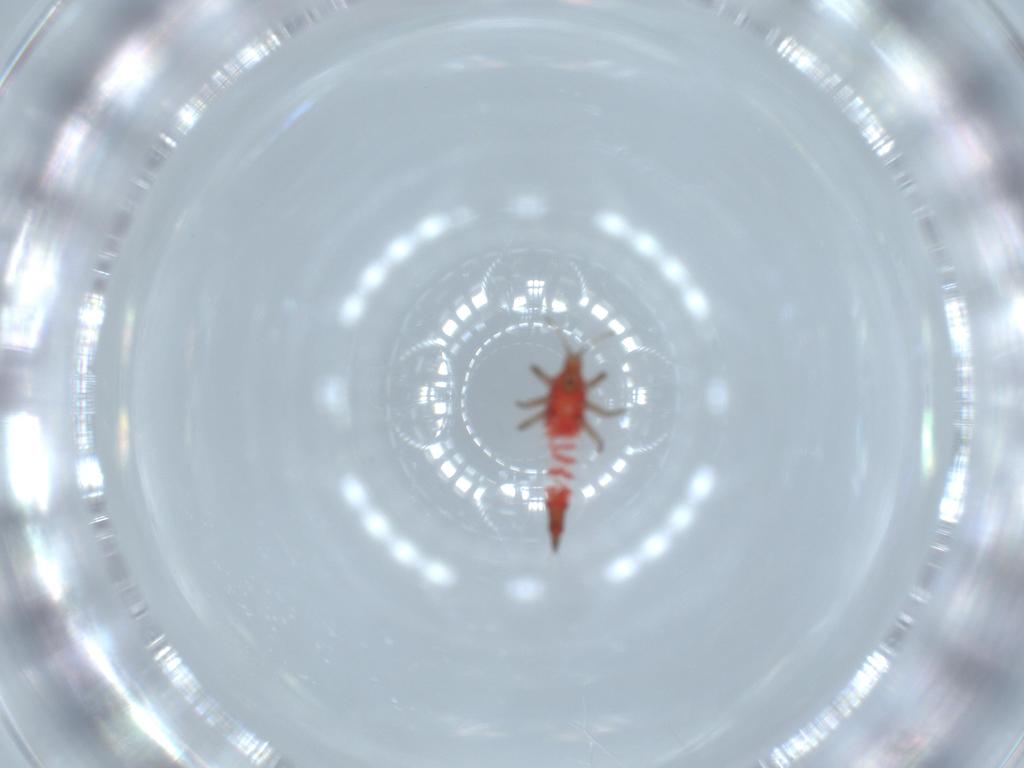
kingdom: Animalia
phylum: Arthropoda
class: Insecta
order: Thysanoptera
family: Phlaeothripidae
